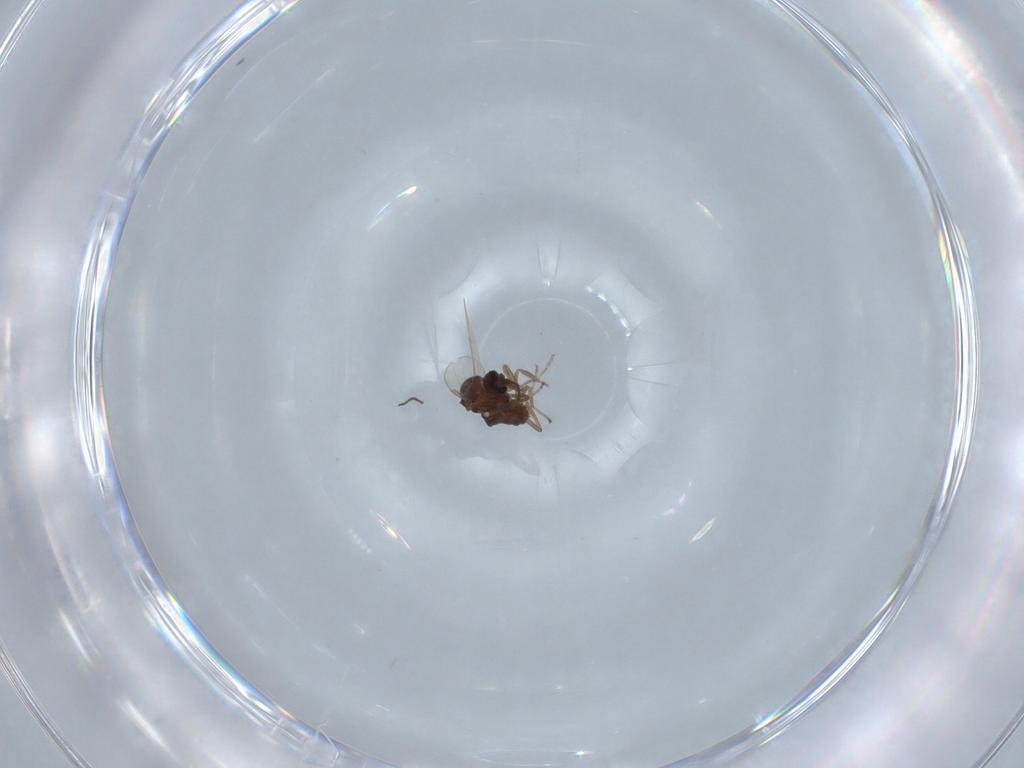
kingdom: Animalia
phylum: Arthropoda
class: Insecta
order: Diptera
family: Ceratopogonidae
